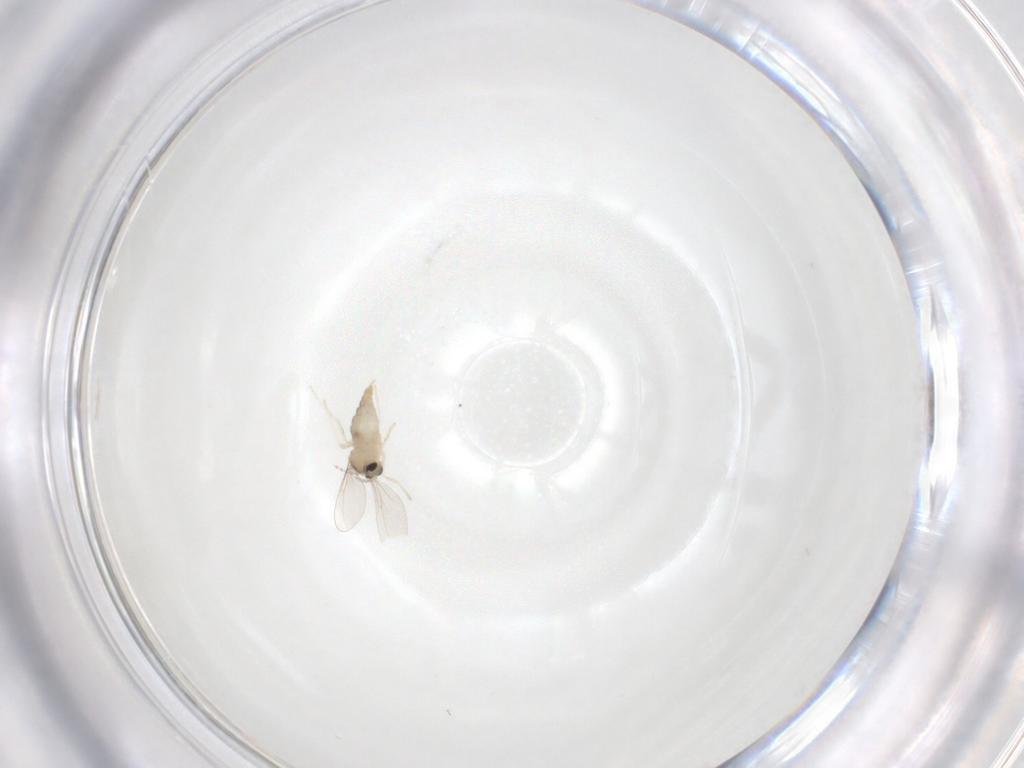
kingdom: Animalia
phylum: Arthropoda
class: Insecta
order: Diptera
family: Cecidomyiidae
